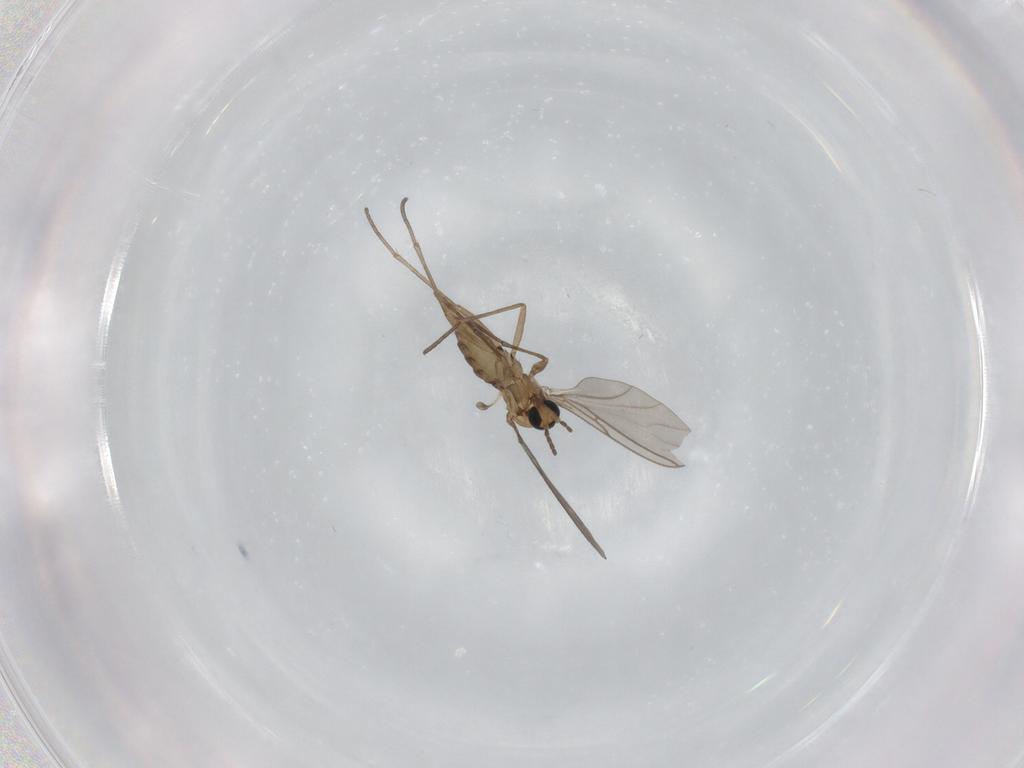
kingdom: Animalia
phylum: Arthropoda
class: Insecta
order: Diptera
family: Sciaridae
